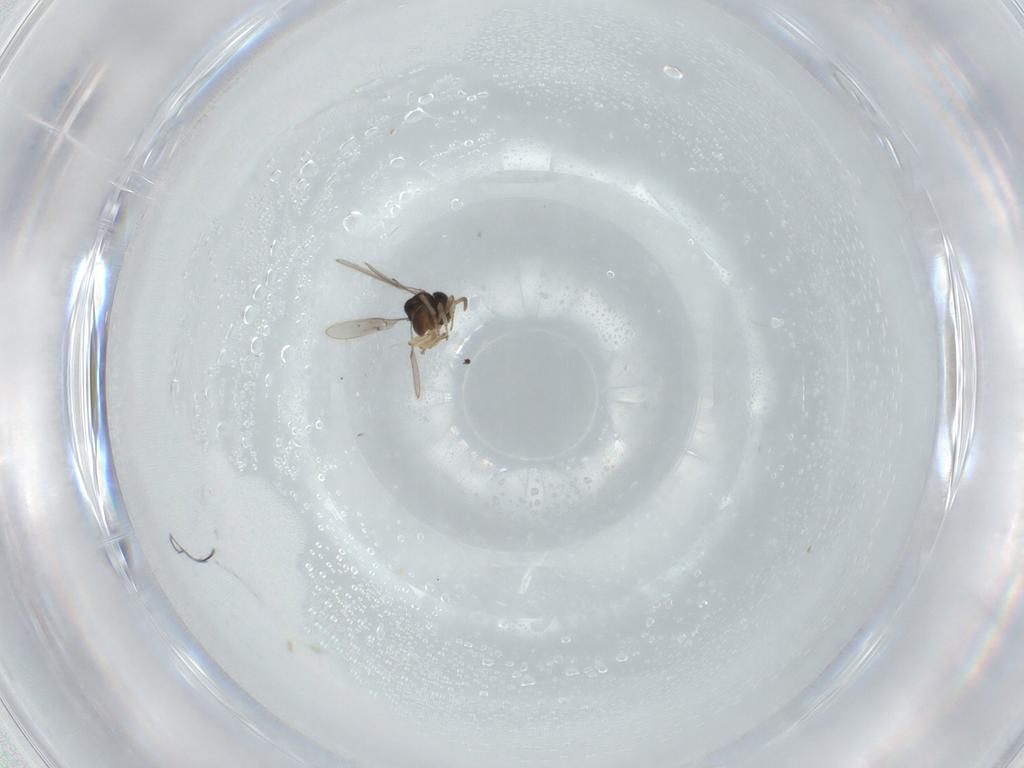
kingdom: Animalia
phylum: Arthropoda
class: Insecta
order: Hymenoptera
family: Scelionidae
